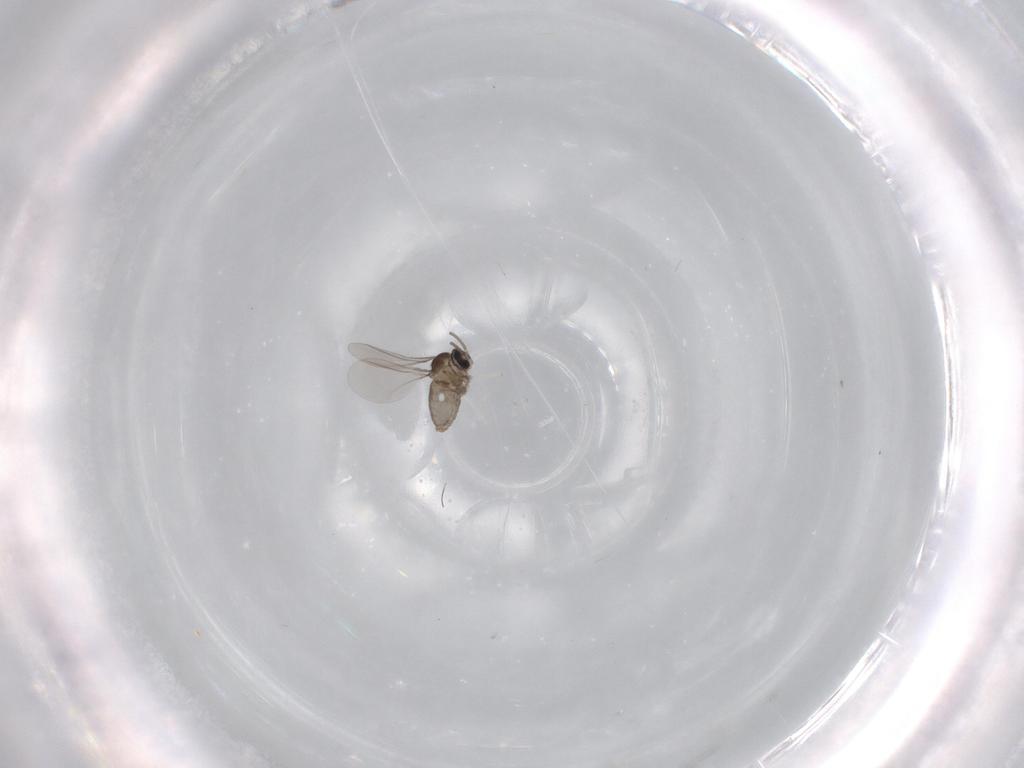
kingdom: Animalia
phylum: Arthropoda
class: Insecta
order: Diptera
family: Cecidomyiidae
